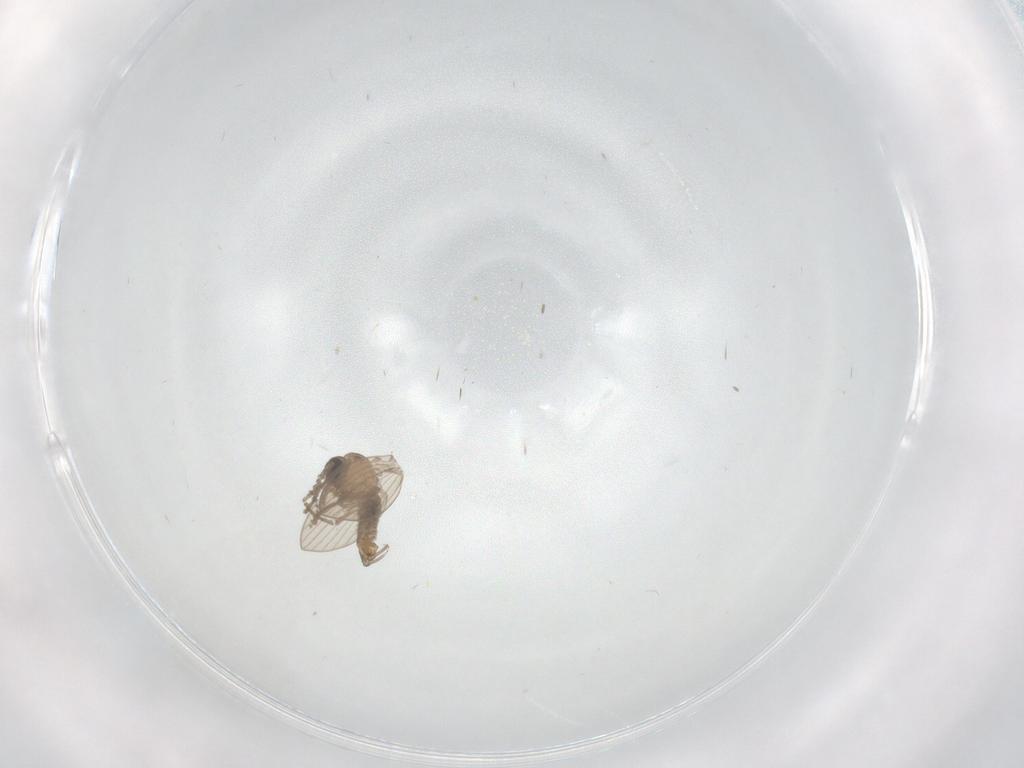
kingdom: Animalia
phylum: Arthropoda
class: Insecta
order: Diptera
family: Psychodidae
